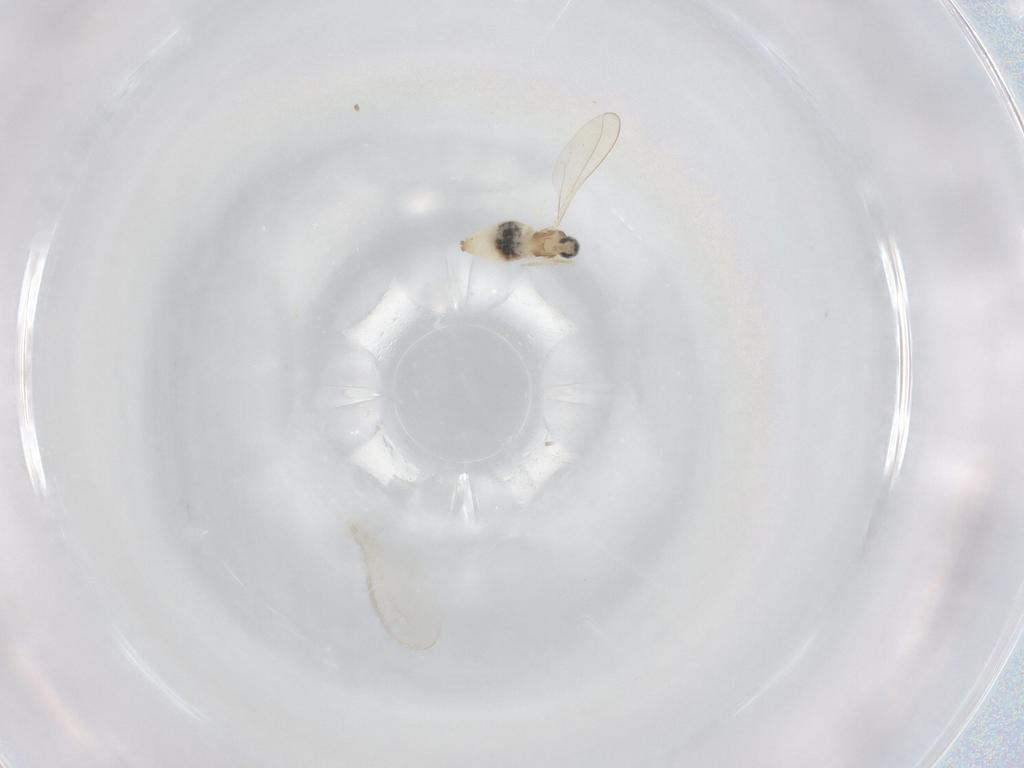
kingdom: Animalia
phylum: Arthropoda
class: Insecta
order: Diptera
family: Cecidomyiidae
